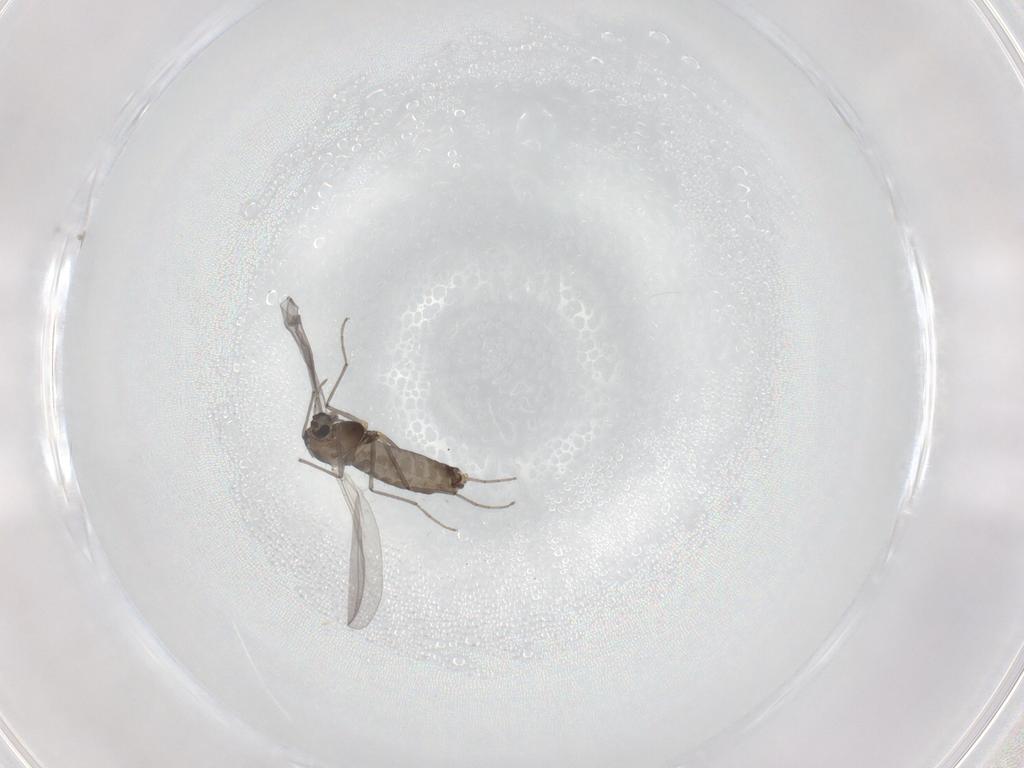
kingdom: Animalia
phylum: Arthropoda
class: Insecta
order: Diptera
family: Chironomidae
